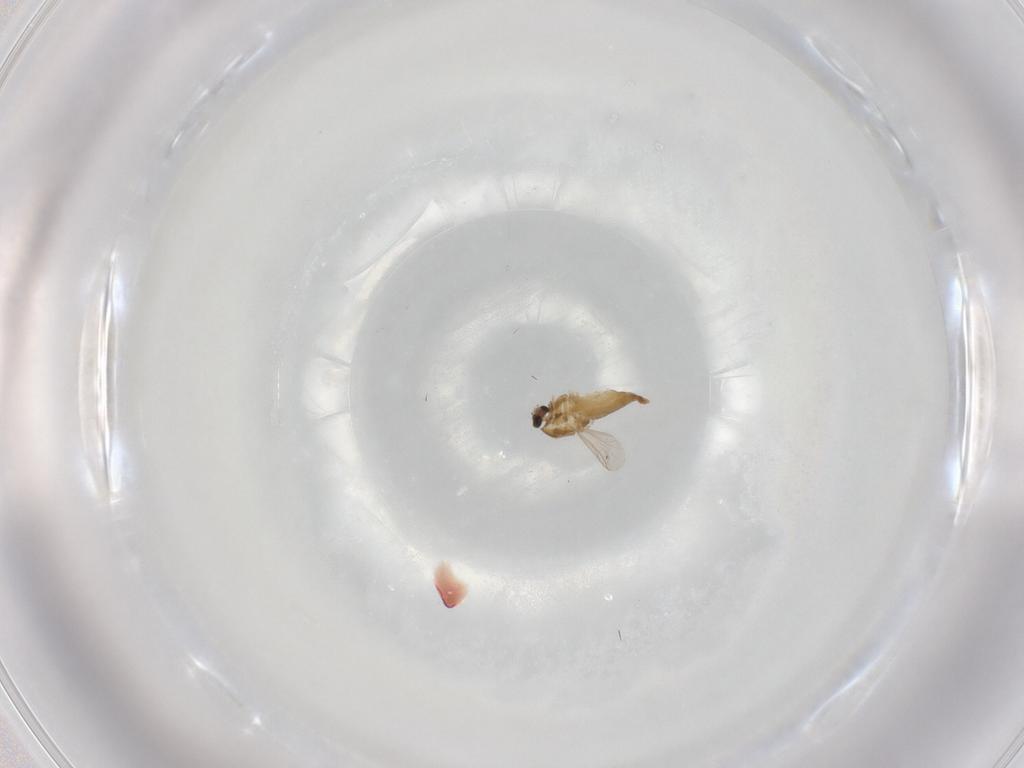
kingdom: Animalia
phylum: Arthropoda
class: Insecta
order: Diptera
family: Chironomidae
